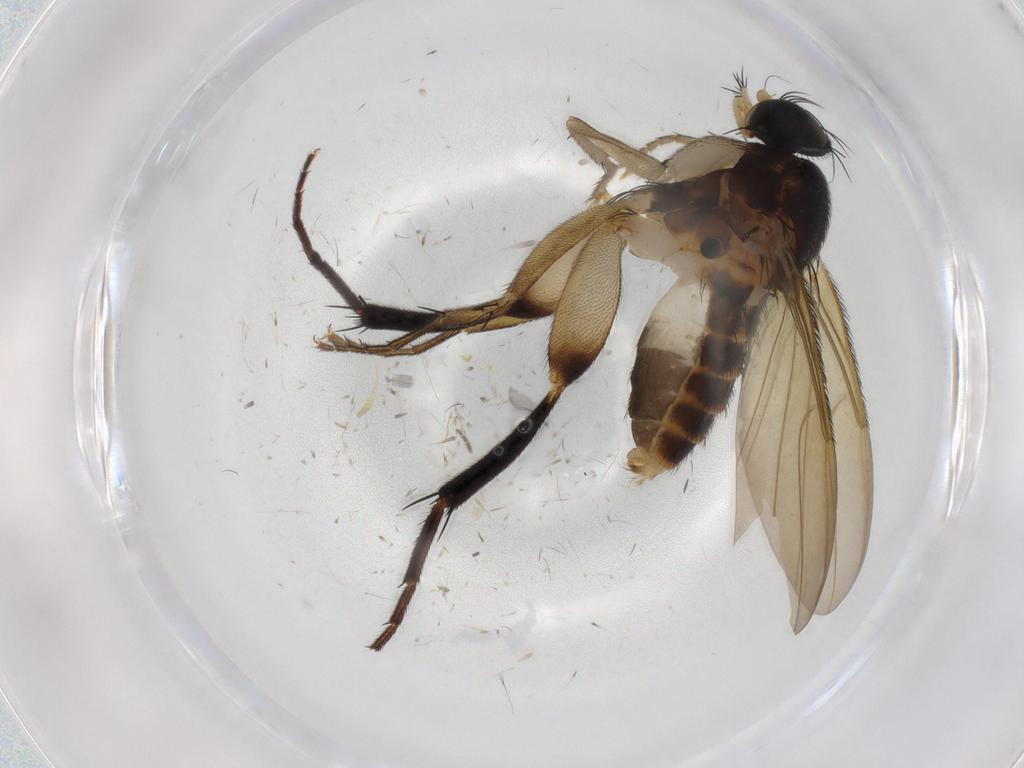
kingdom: Animalia
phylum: Arthropoda
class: Insecta
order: Diptera
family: Phoridae
